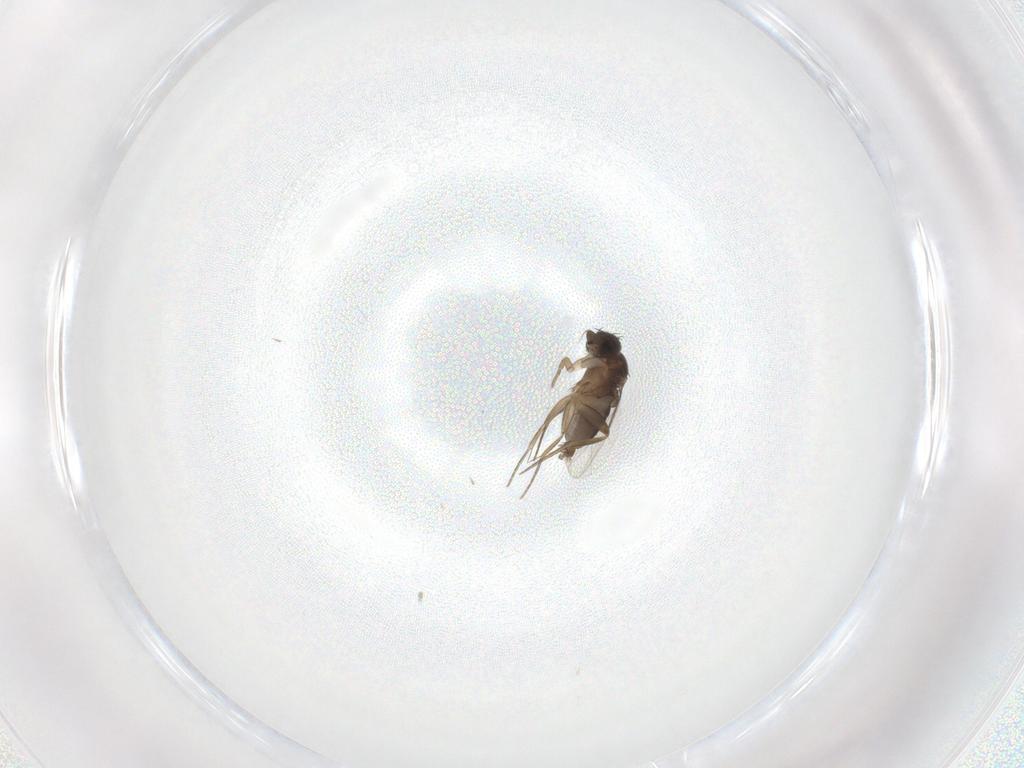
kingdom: Animalia
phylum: Arthropoda
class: Insecta
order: Diptera
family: Phoridae
